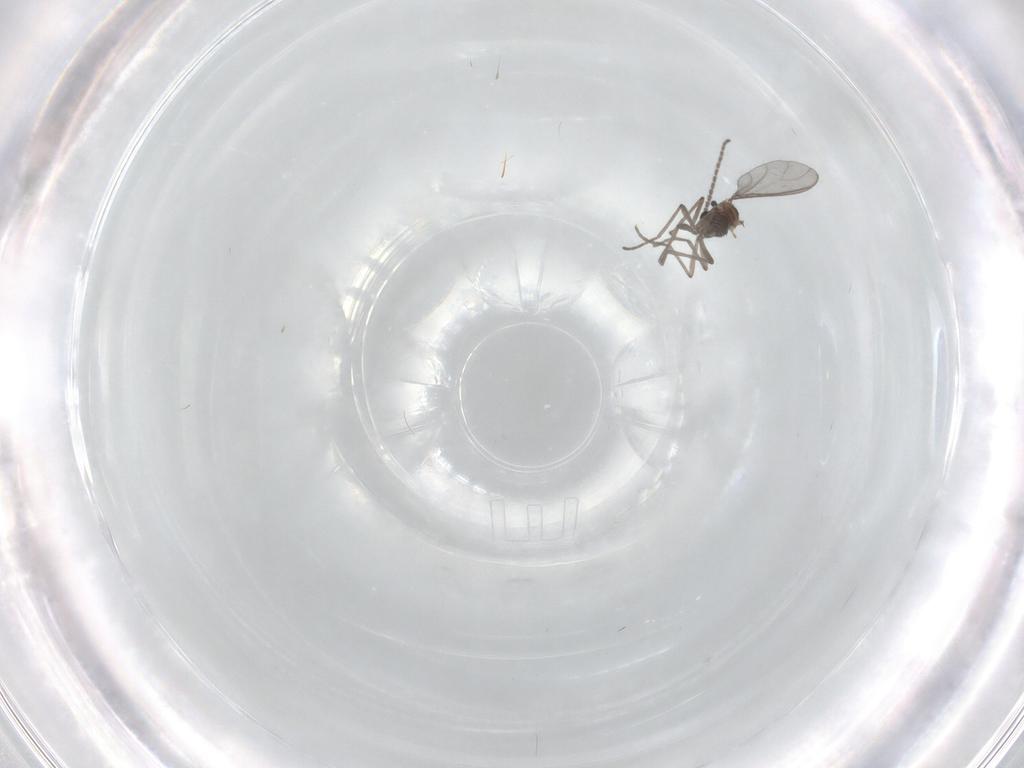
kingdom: Animalia
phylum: Arthropoda
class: Insecta
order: Diptera
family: Sciaridae
